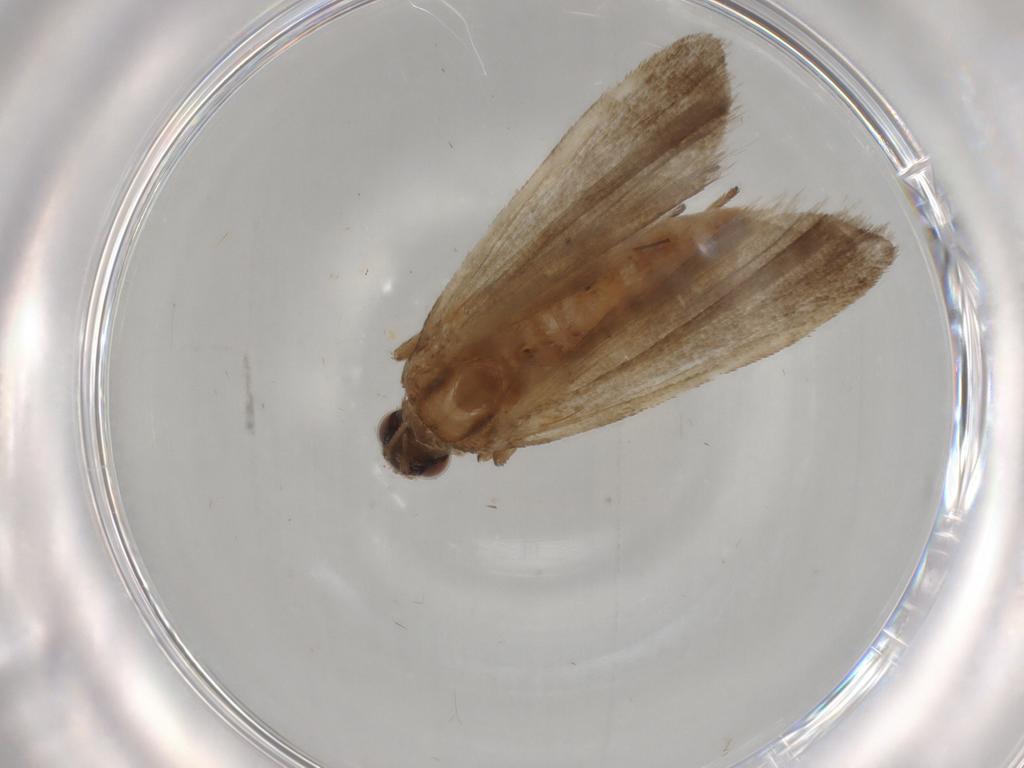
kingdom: Animalia
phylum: Arthropoda
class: Insecta
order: Lepidoptera
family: Noctuidae
